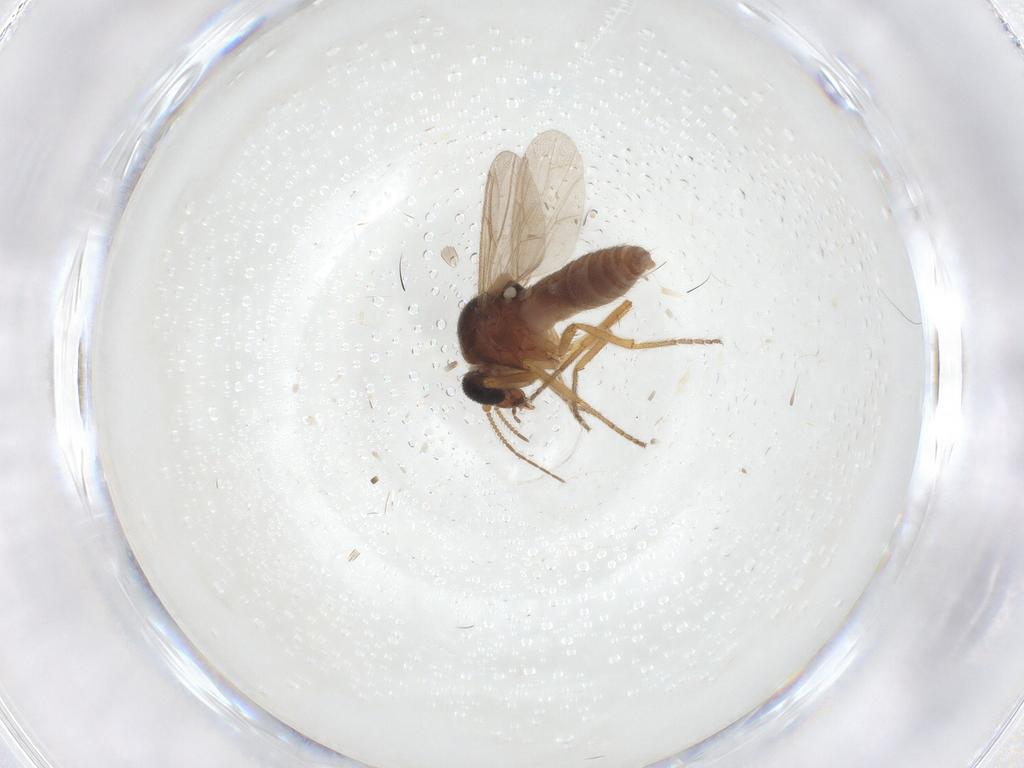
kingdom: Animalia
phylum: Arthropoda
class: Insecta
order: Diptera
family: Ceratopogonidae
